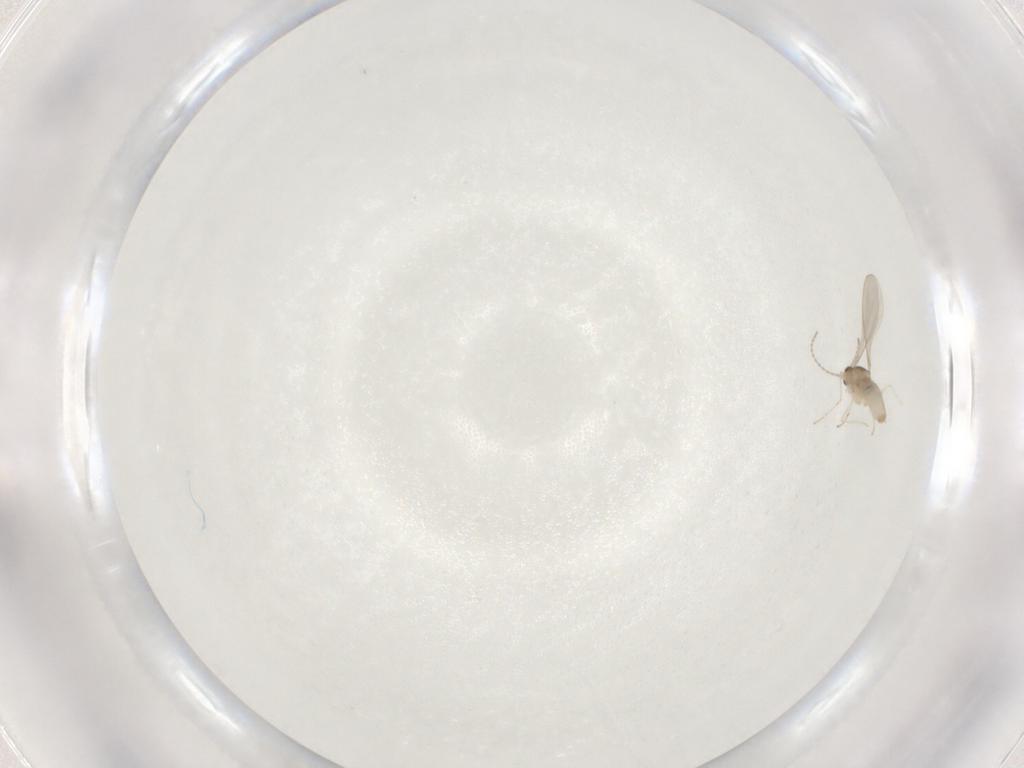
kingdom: Animalia
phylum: Arthropoda
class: Insecta
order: Diptera
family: Cecidomyiidae
